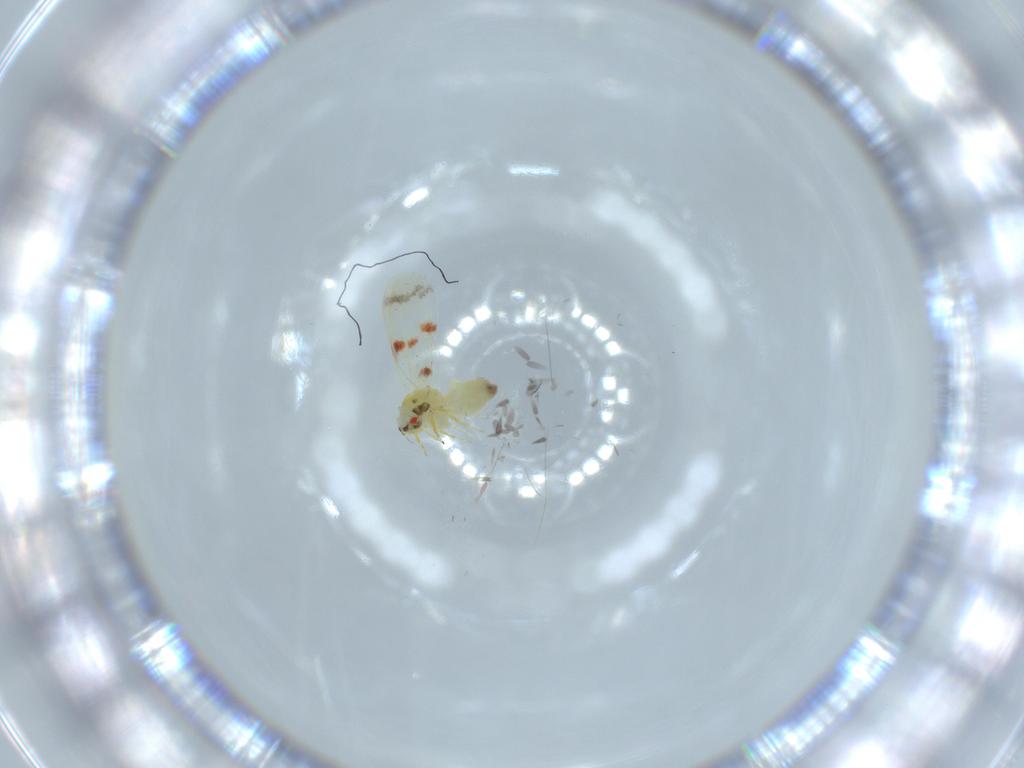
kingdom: Animalia
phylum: Arthropoda
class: Insecta
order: Hemiptera
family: Aleyrodidae
